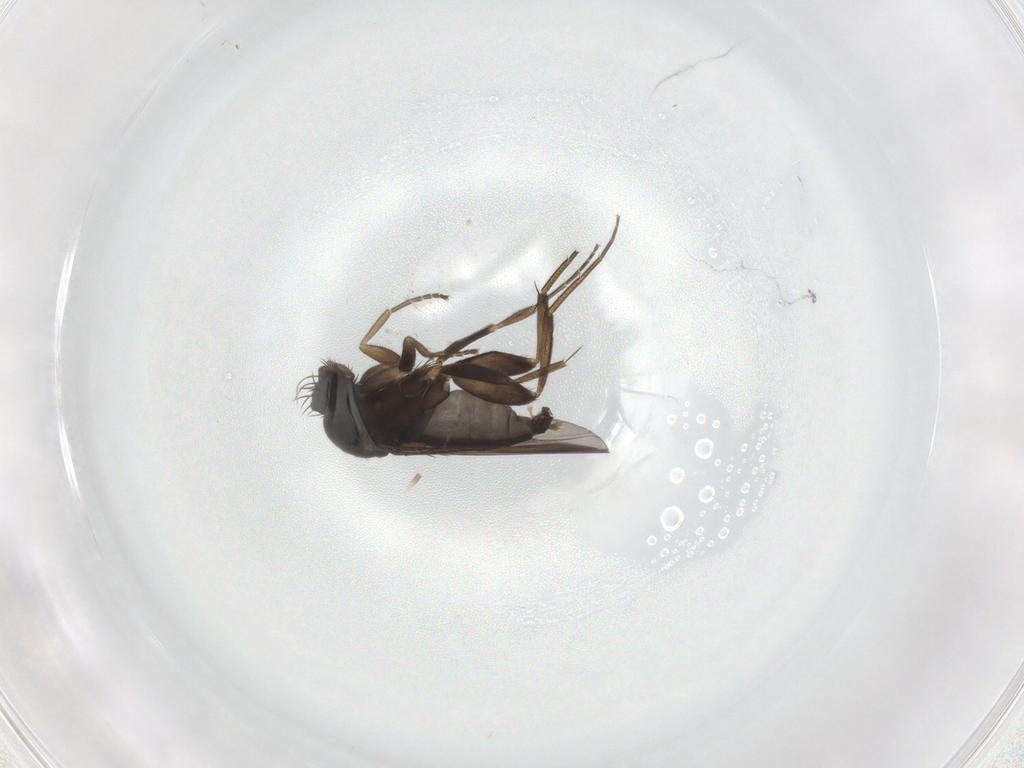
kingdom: Animalia
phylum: Arthropoda
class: Insecta
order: Diptera
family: Phoridae
